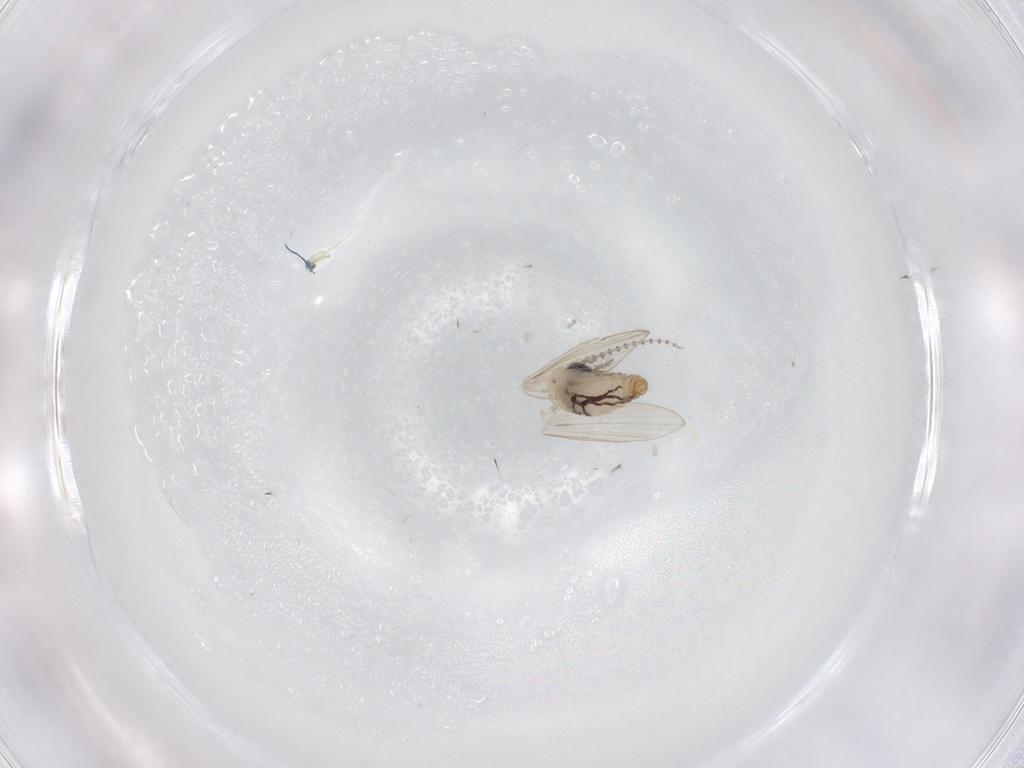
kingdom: Animalia
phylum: Arthropoda
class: Insecta
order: Diptera
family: Psychodidae
